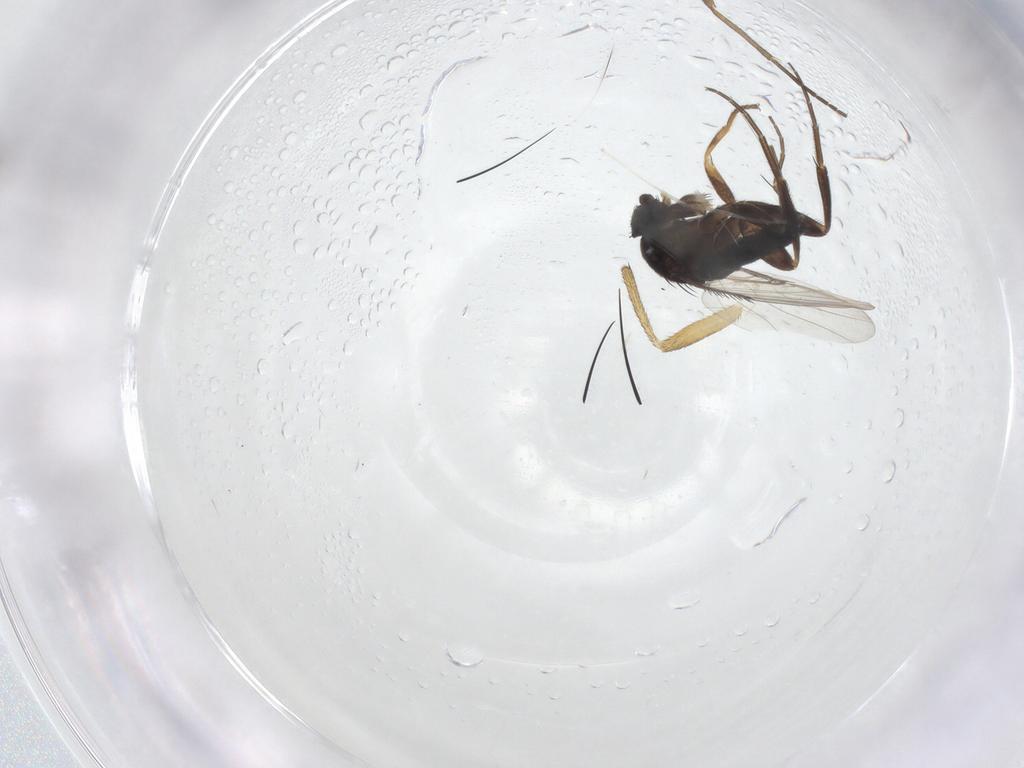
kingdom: Animalia
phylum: Arthropoda
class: Insecta
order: Diptera
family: Phoridae
